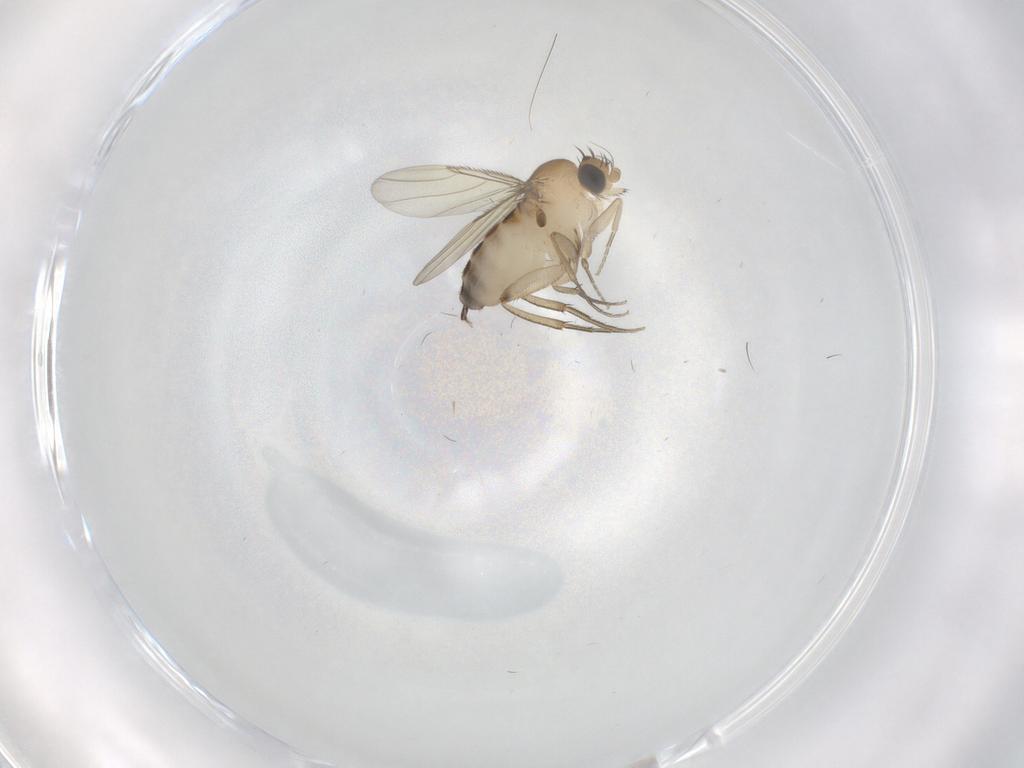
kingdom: Animalia
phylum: Arthropoda
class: Insecta
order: Diptera
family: Phoridae
